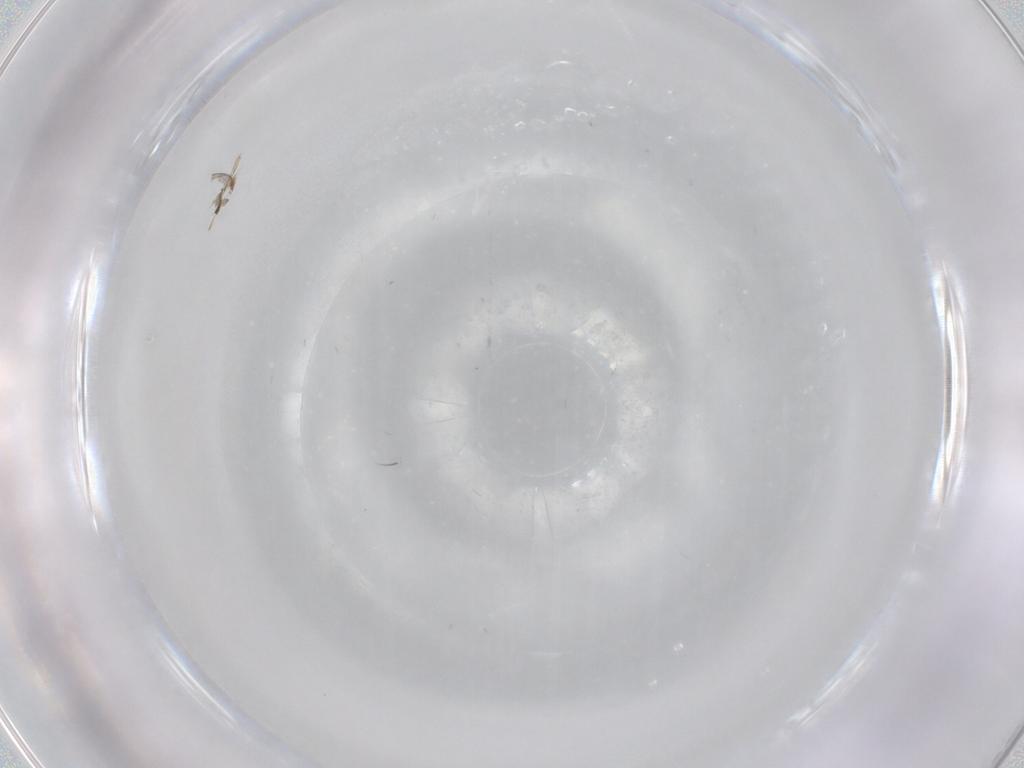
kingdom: Animalia
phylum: Arthropoda
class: Insecta
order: Diptera
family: Chironomidae
